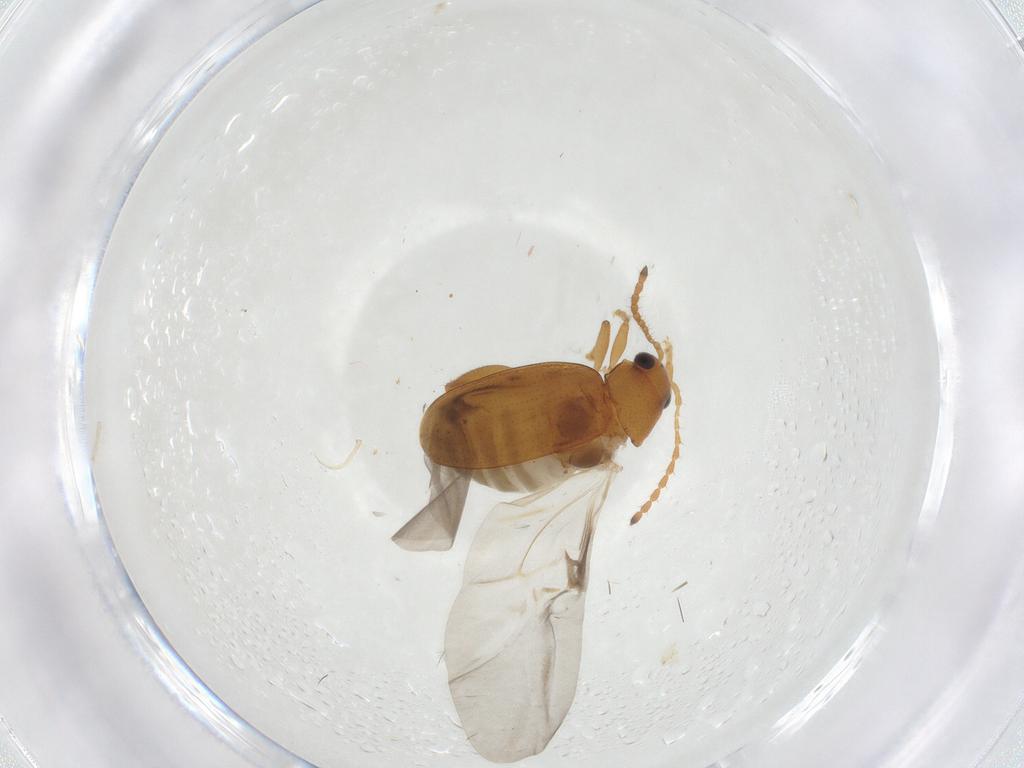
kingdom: Animalia
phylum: Arthropoda
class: Insecta
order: Coleoptera
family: Chrysomelidae
